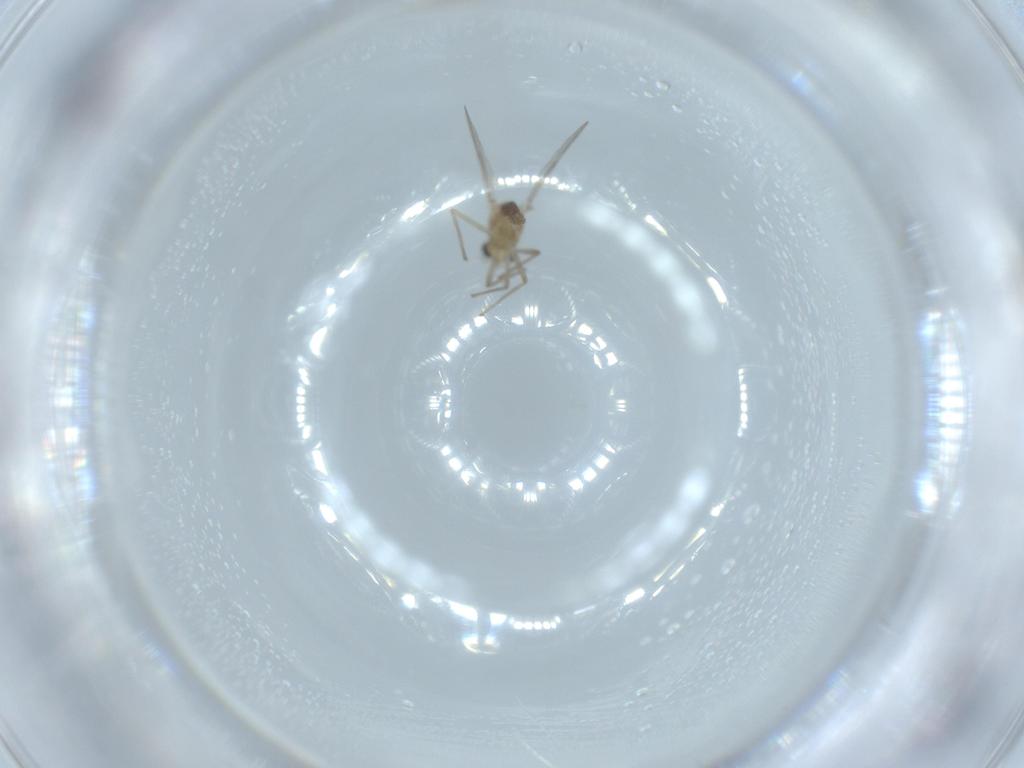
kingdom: Animalia
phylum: Arthropoda
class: Insecta
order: Diptera
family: Chironomidae
